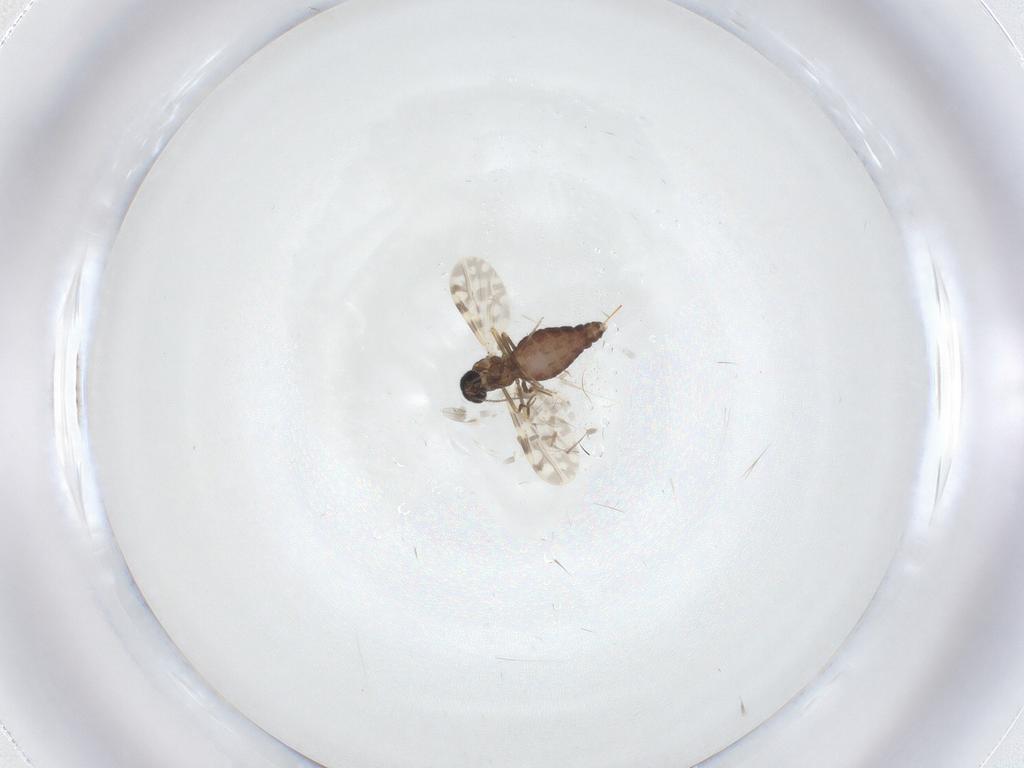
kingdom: Animalia
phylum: Arthropoda
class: Insecta
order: Diptera
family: Ceratopogonidae
